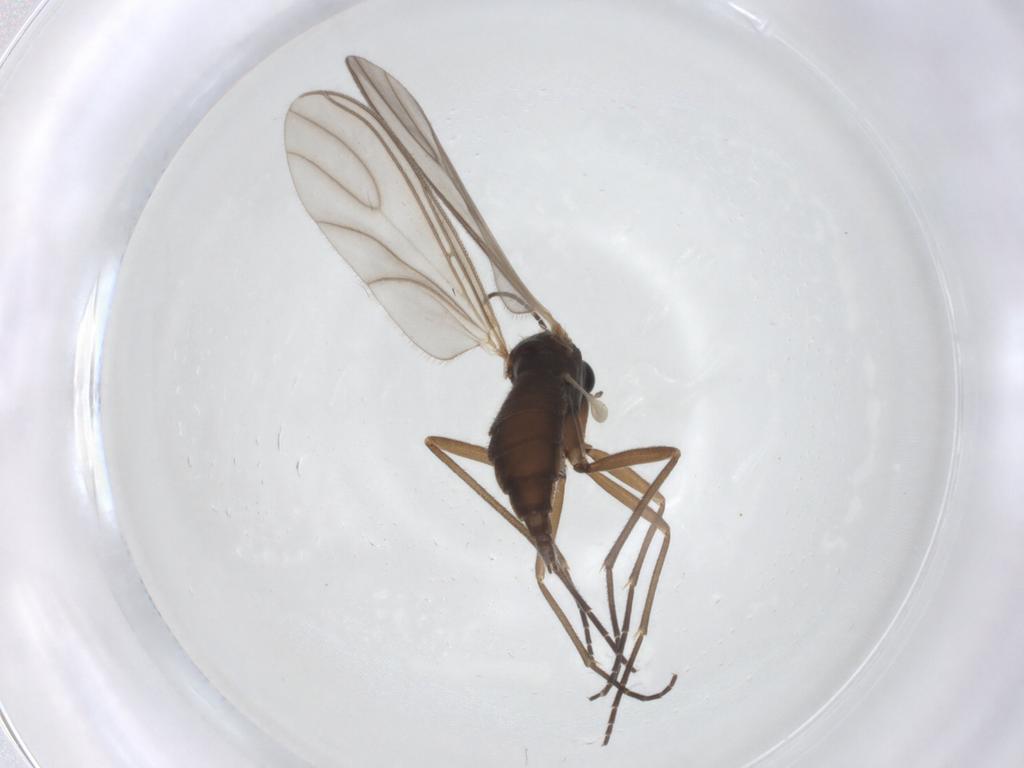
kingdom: Animalia
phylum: Arthropoda
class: Insecta
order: Diptera
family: Sciaridae
